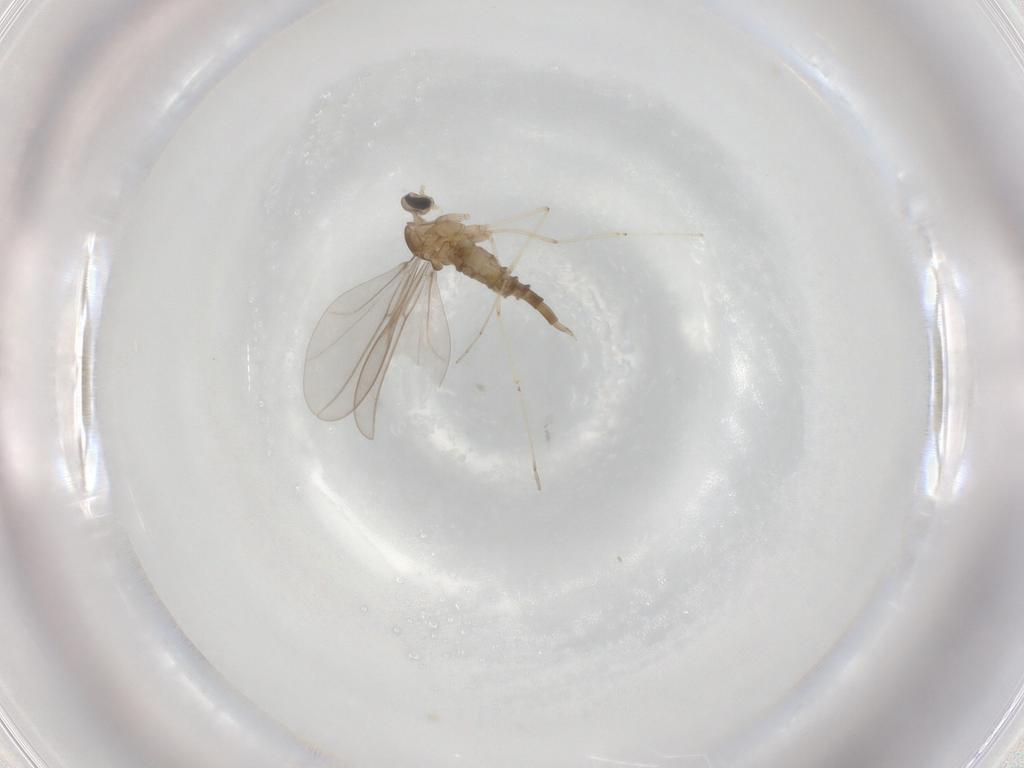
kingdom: Animalia
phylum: Arthropoda
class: Insecta
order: Diptera
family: Cecidomyiidae
